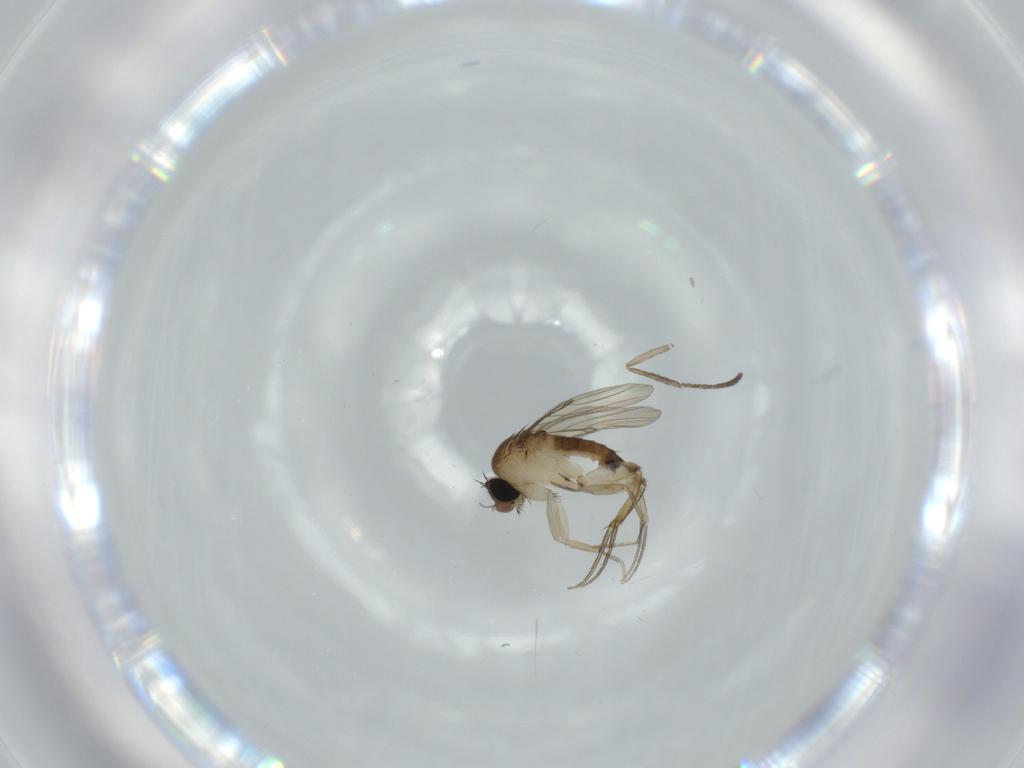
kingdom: Animalia
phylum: Arthropoda
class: Insecta
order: Diptera
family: Phoridae
